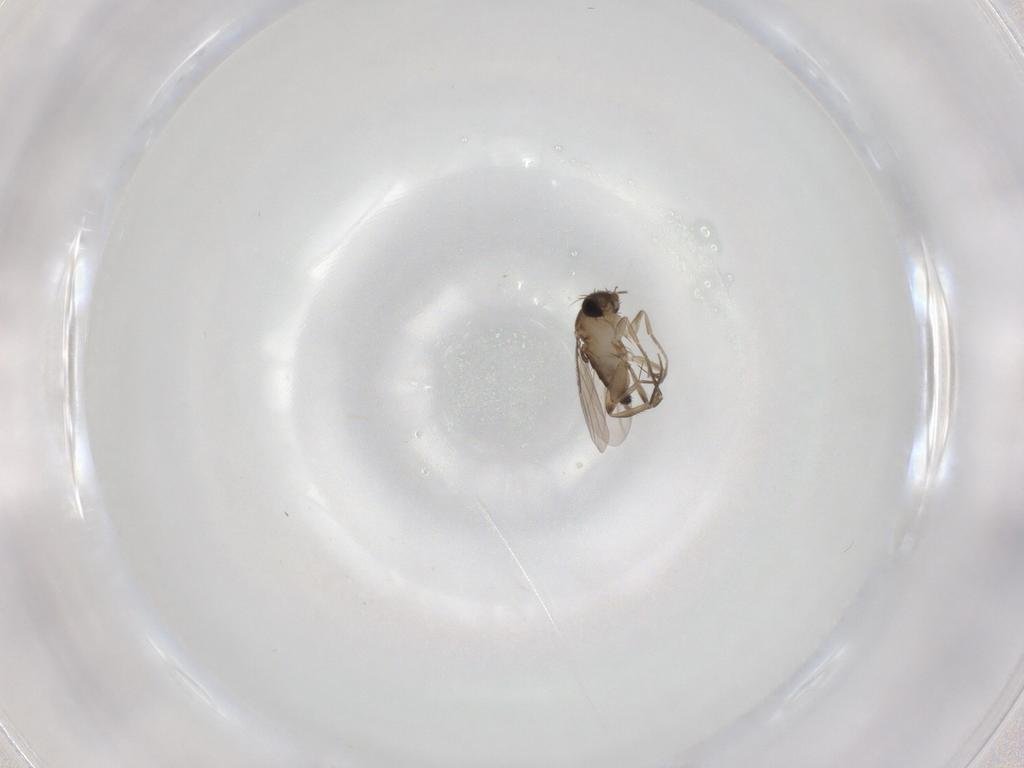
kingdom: Animalia
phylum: Arthropoda
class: Insecta
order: Diptera
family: Phoridae
